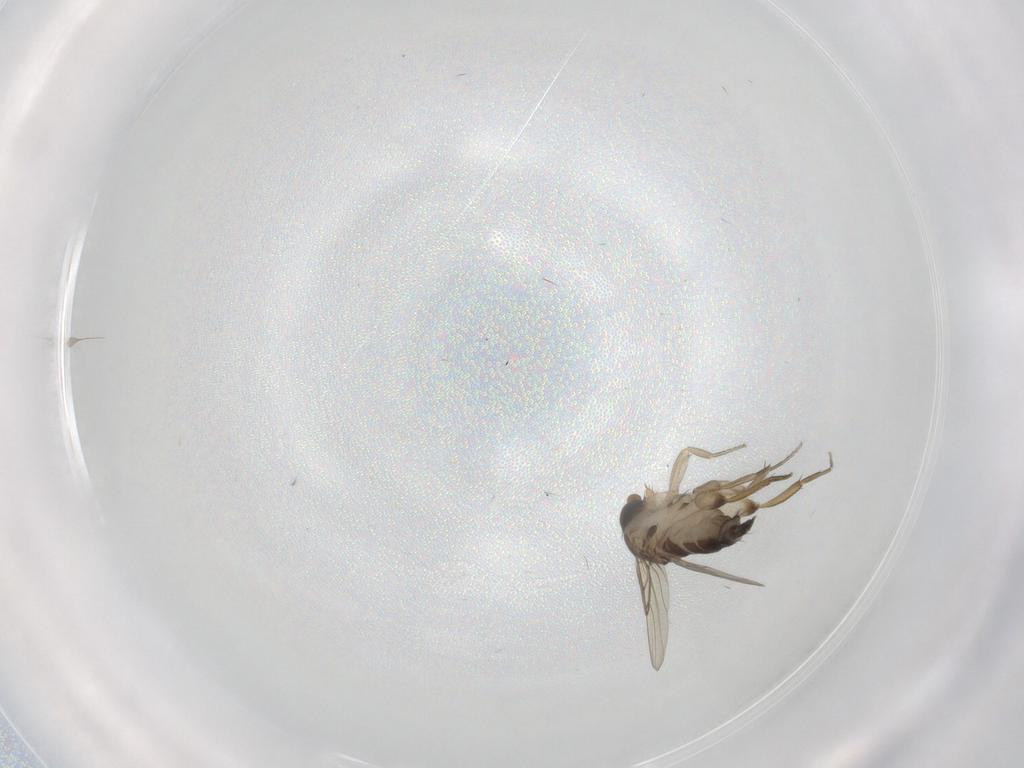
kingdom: Animalia
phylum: Arthropoda
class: Insecta
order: Diptera
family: Phoridae
